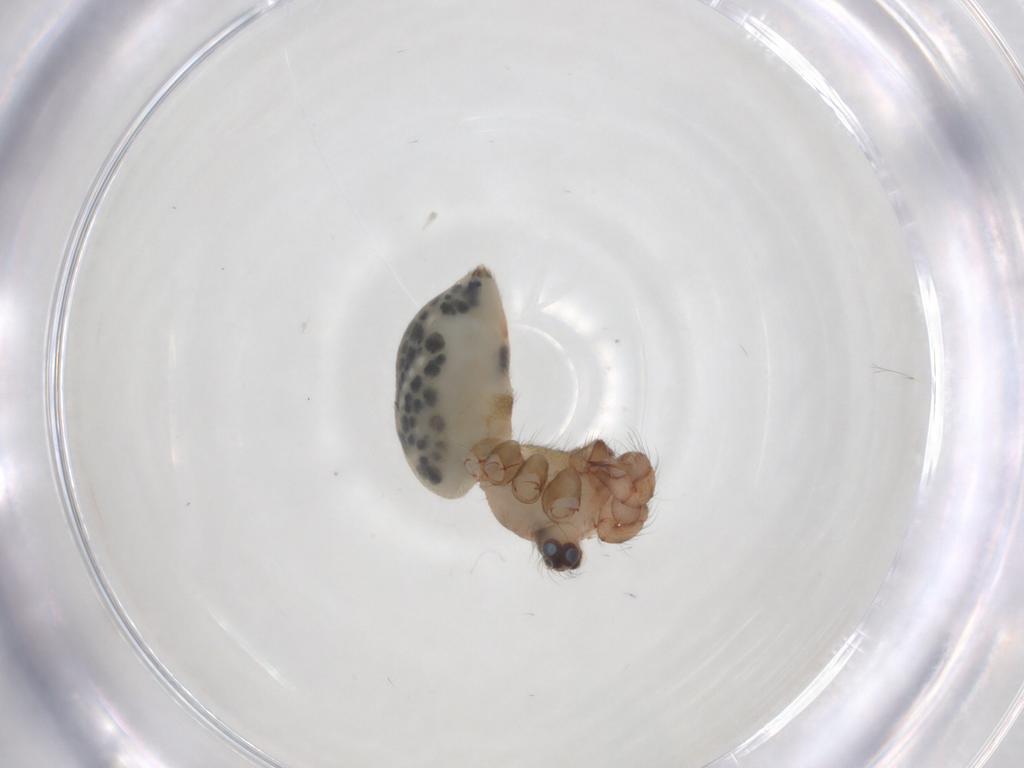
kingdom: Animalia
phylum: Arthropoda
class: Arachnida
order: Araneae
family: Pholcidae
